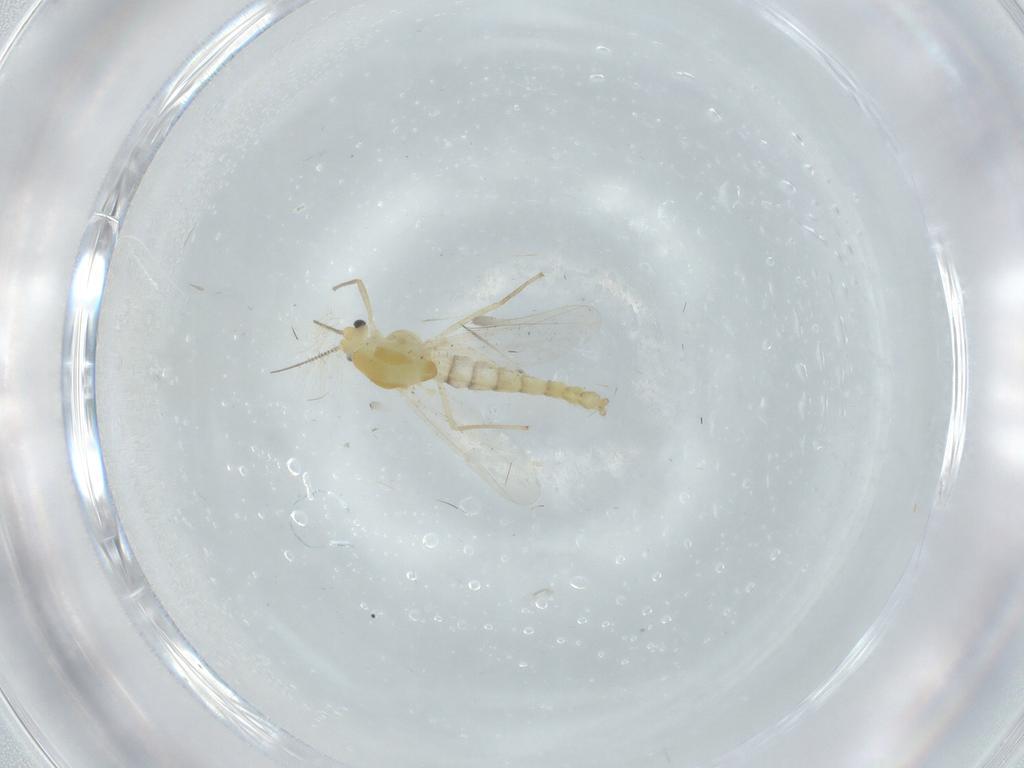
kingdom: Animalia
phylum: Arthropoda
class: Insecta
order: Diptera
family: Chironomidae
